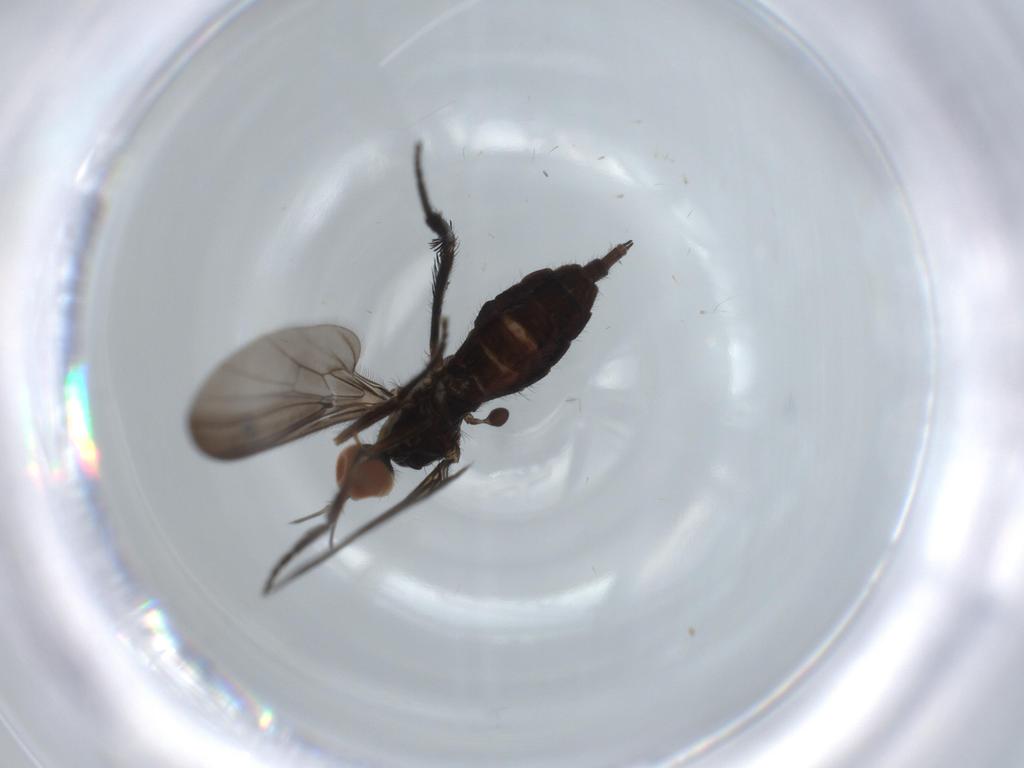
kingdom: Animalia
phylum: Arthropoda
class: Insecta
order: Diptera
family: Empididae
